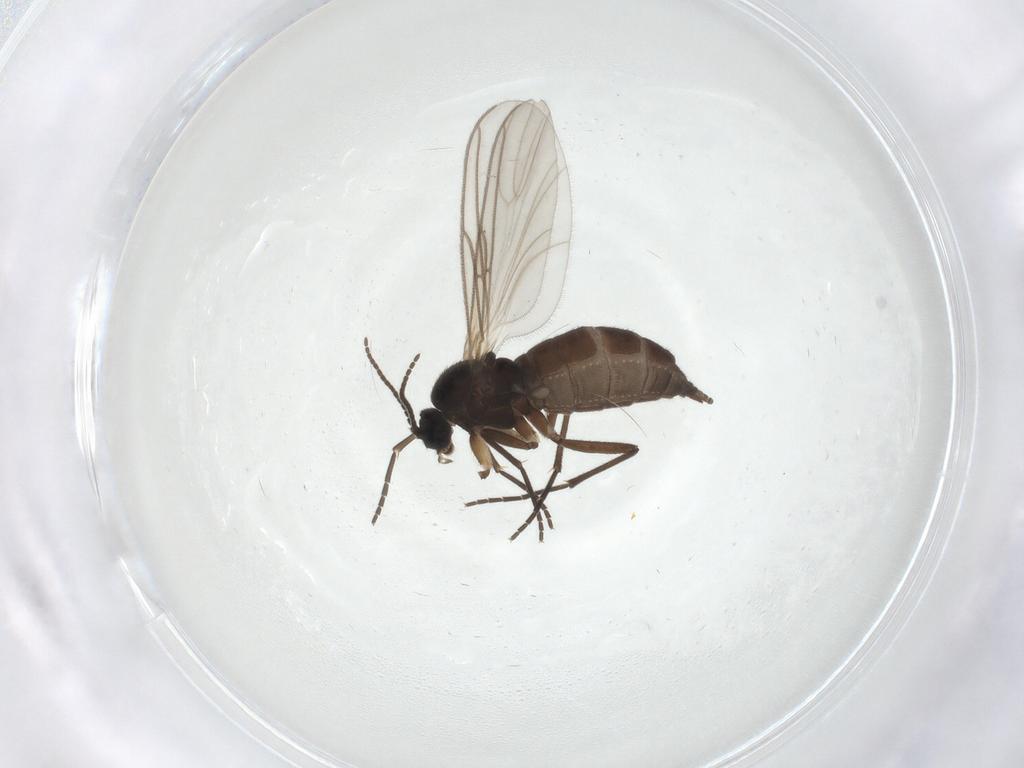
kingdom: Animalia
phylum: Arthropoda
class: Insecta
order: Diptera
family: Sciaridae
